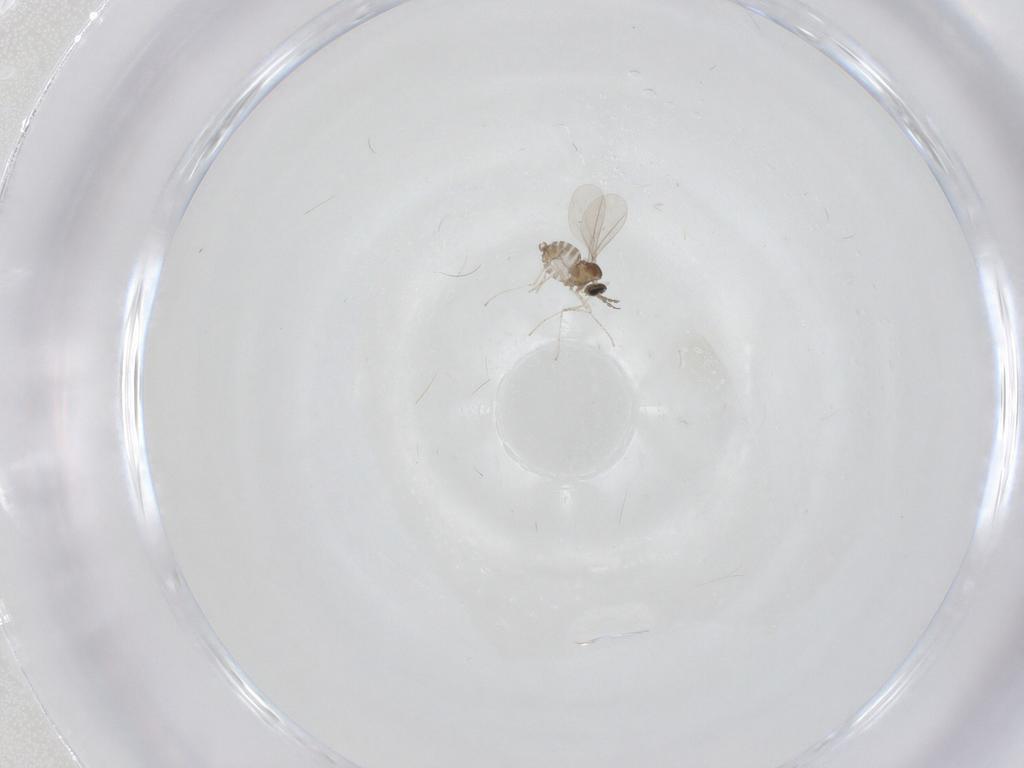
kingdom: Animalia
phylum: Arthropoda
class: Insecta
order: Diptera
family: Cecidomyiidae
